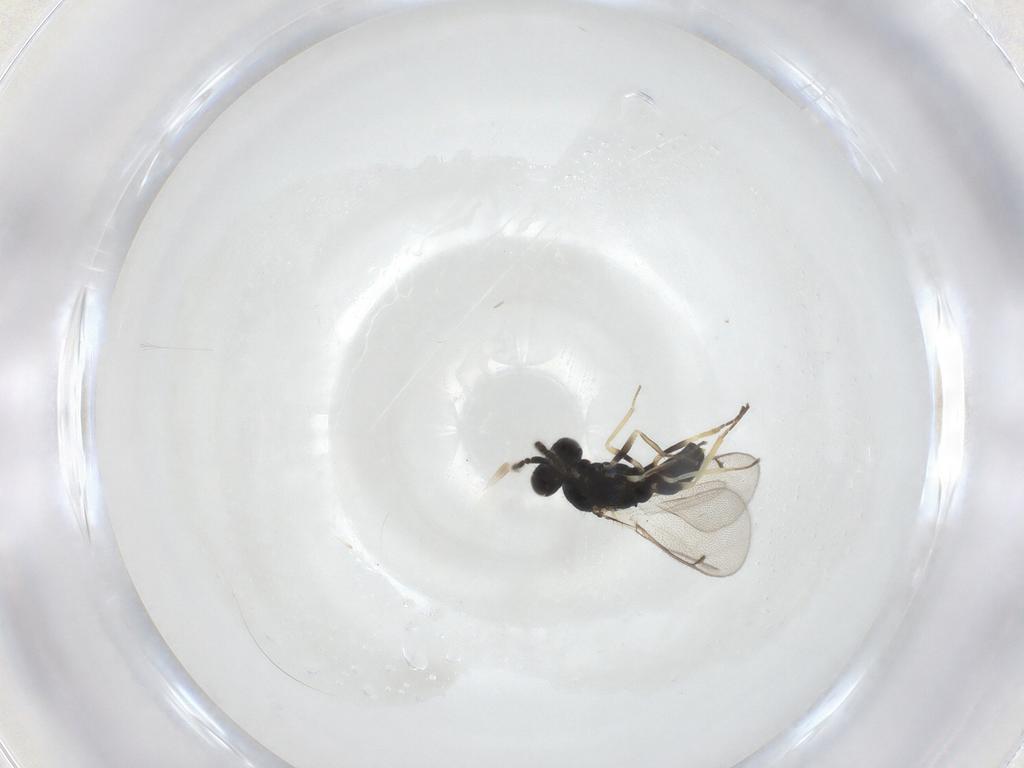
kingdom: Animalia
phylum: Arthropoda
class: Insecta
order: Hymenoptera
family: Eulophidae
